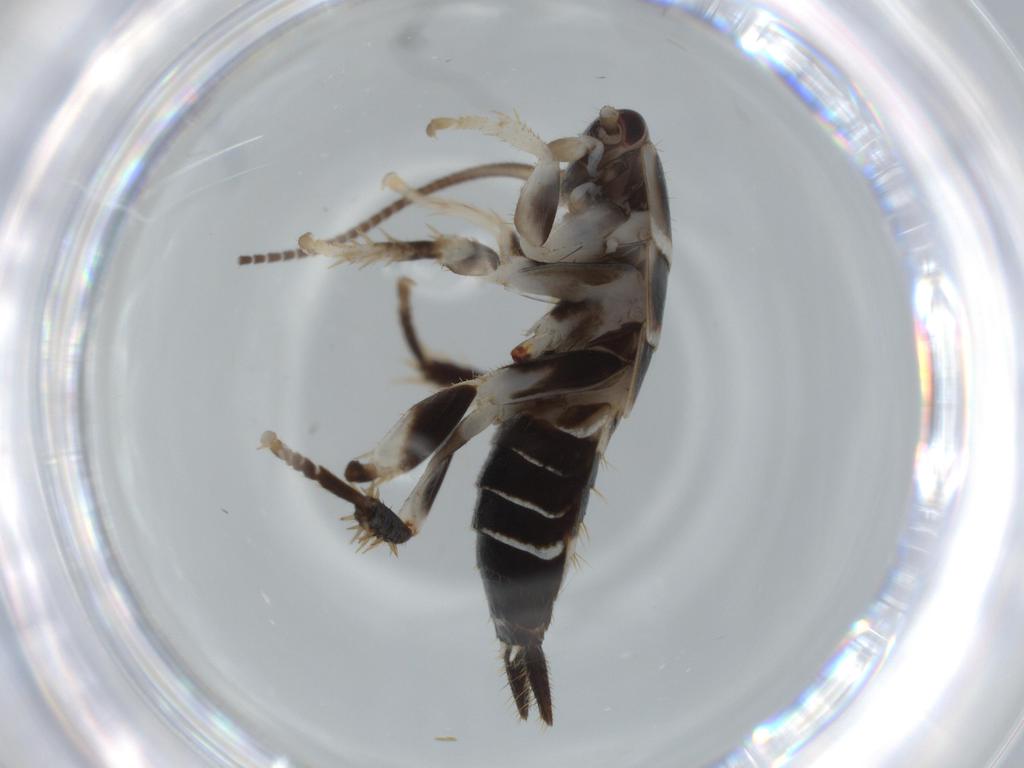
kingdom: Animalia
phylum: Arthropoda
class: Insecta
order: Blattodea
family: Ectobiidae
